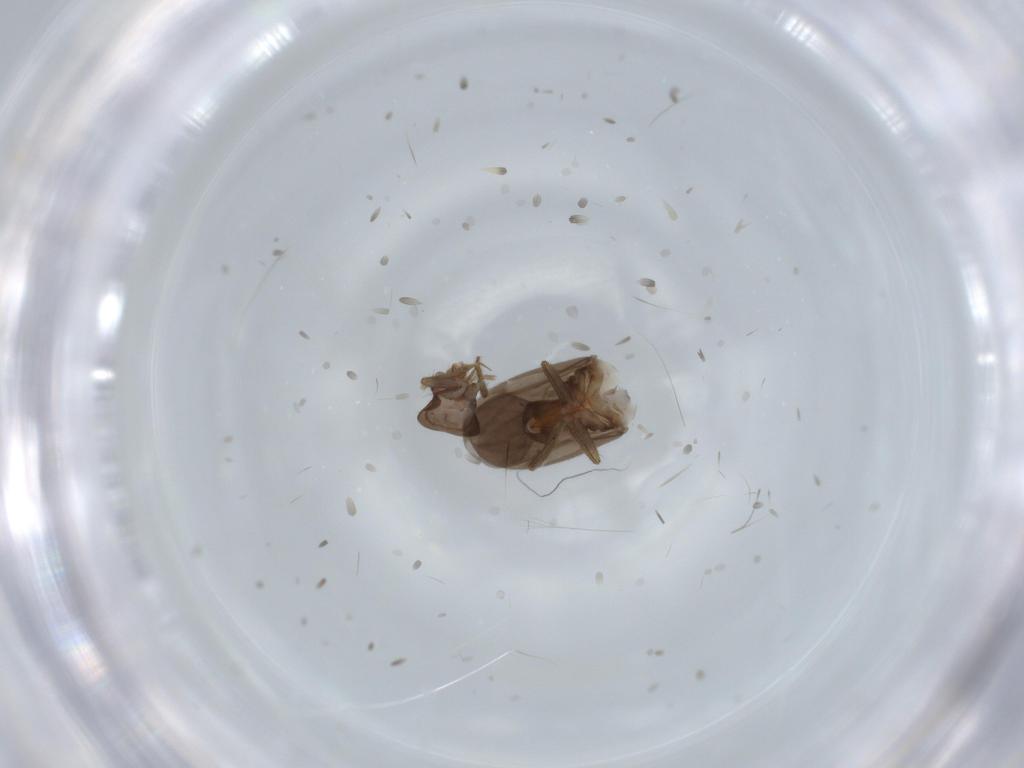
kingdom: Animalia
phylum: Arthropoda
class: Insecta
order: Hemiptera
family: Ceratocombidae
